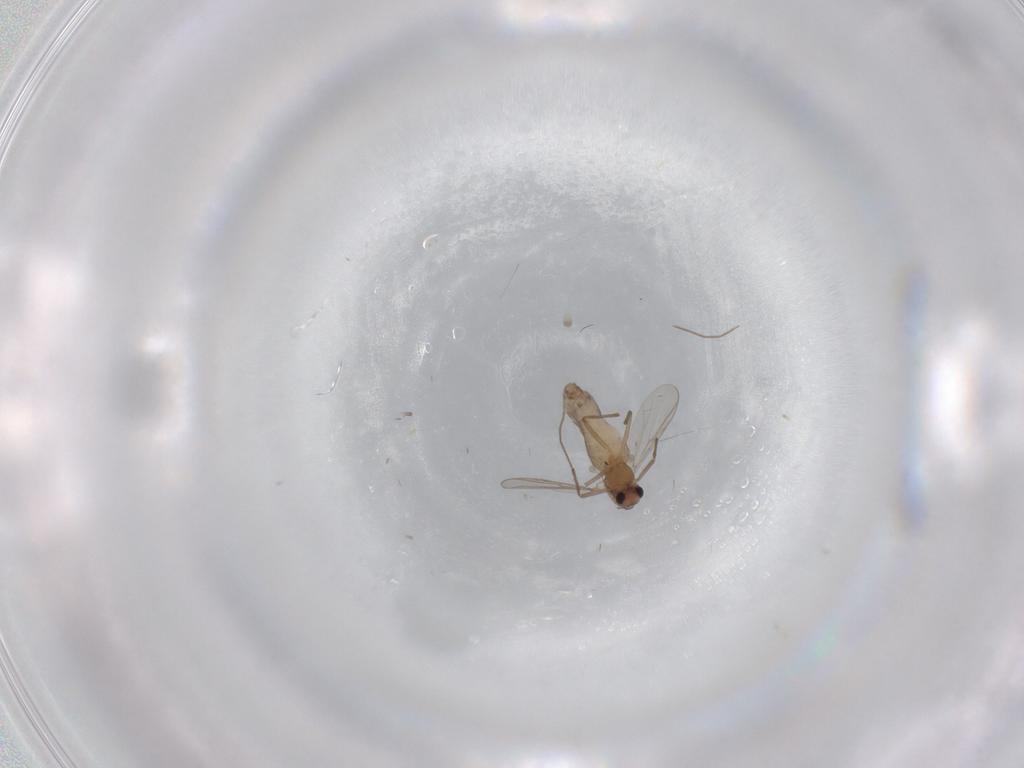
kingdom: Animalia
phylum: Arthropoda
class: Insecta
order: Diptera
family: Chironomidae
